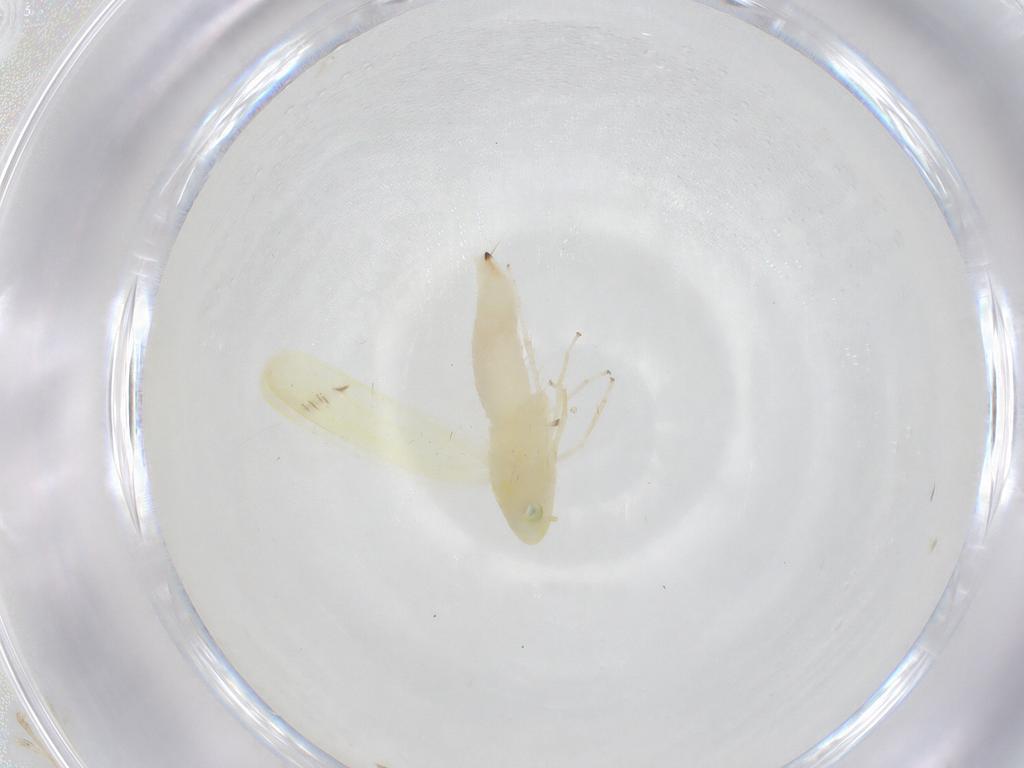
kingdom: Animalia
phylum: Arthropoda
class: Insecta
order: Hemiptera
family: Cicadellidae
